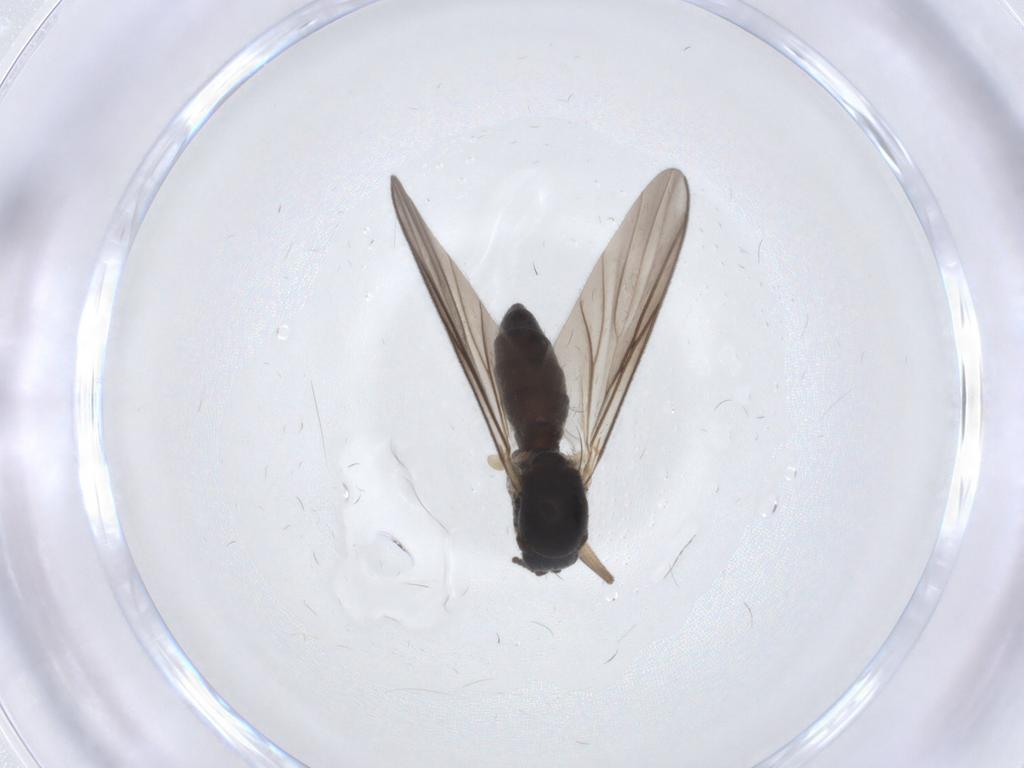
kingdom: Animalia
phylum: Arthropoda
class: Insecta
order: Diptera
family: Mycetophilidae
